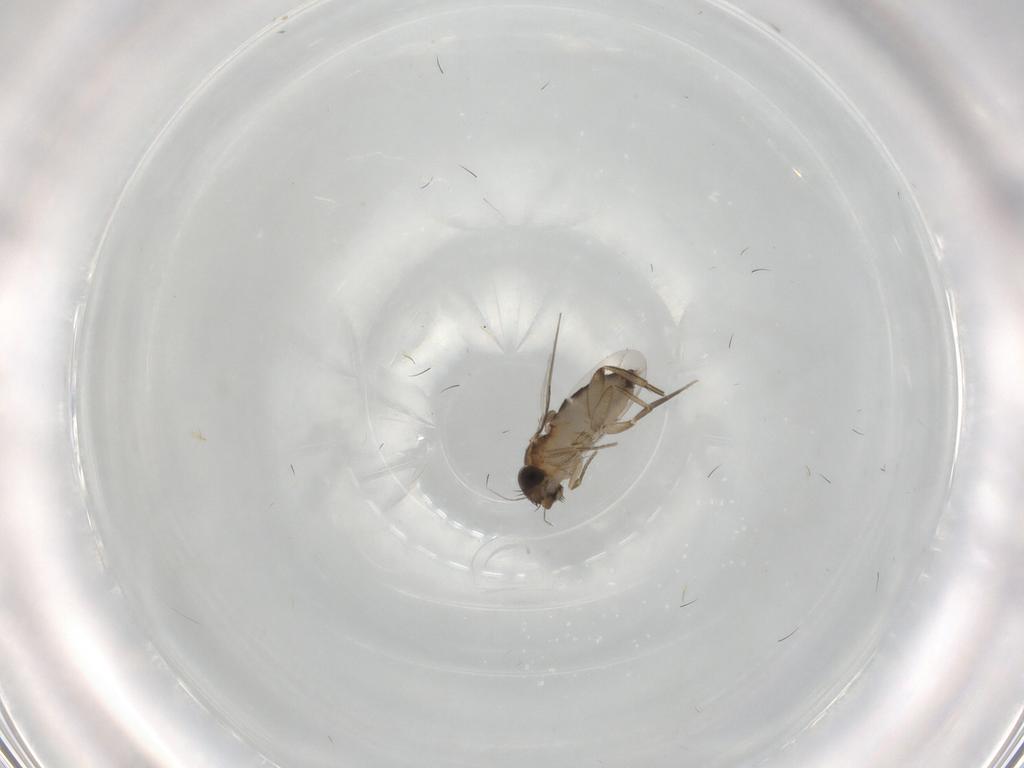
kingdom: Animalia
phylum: Arthropoda
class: Insecta
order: Diptera
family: Phoridae
